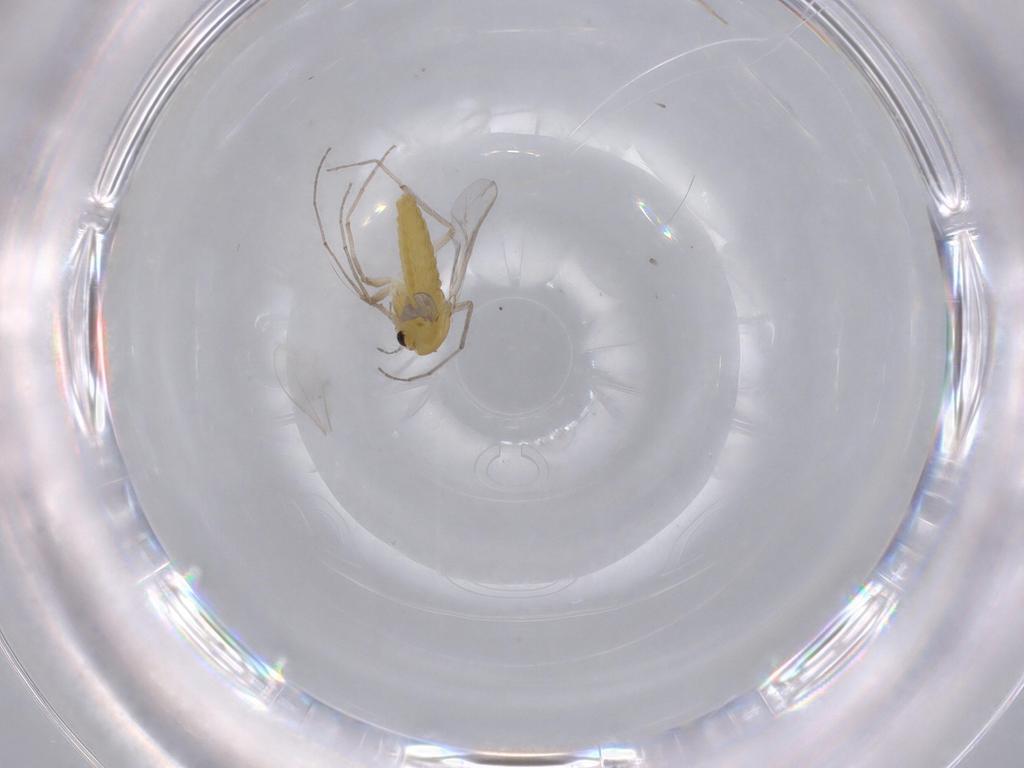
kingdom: Animalia
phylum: Arthropoda
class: Insecta
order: Diptera
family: Chironomidae
